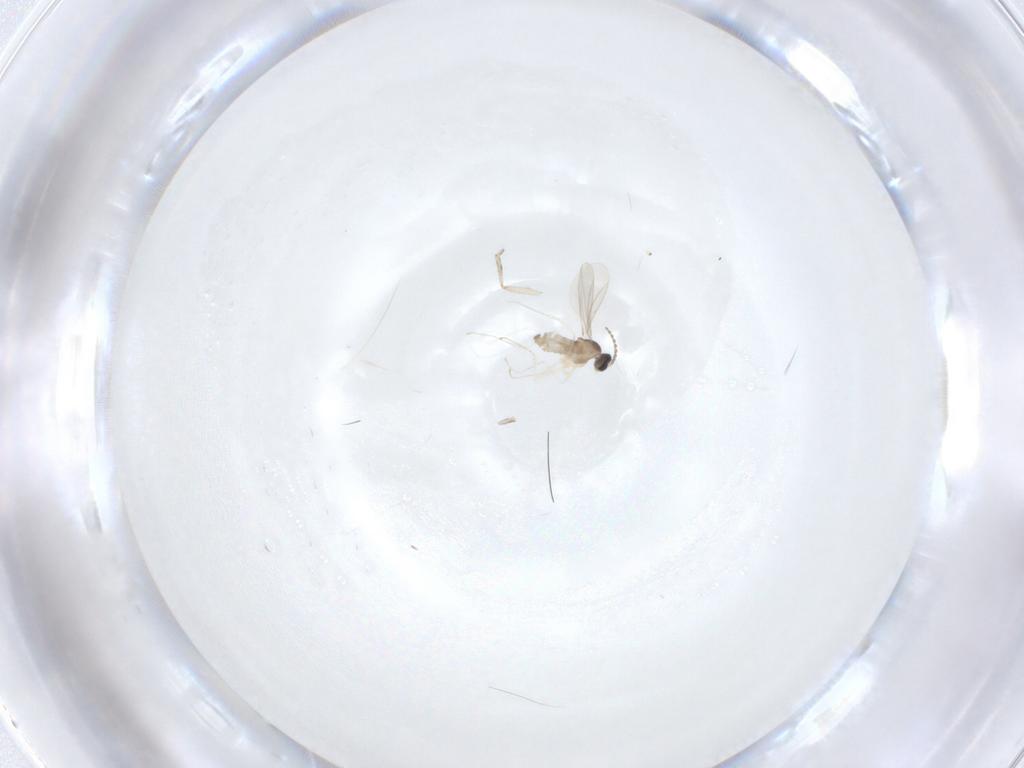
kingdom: Animalia
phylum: Arthropoda
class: Insecta
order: Diptera
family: Cecidomyiidae
